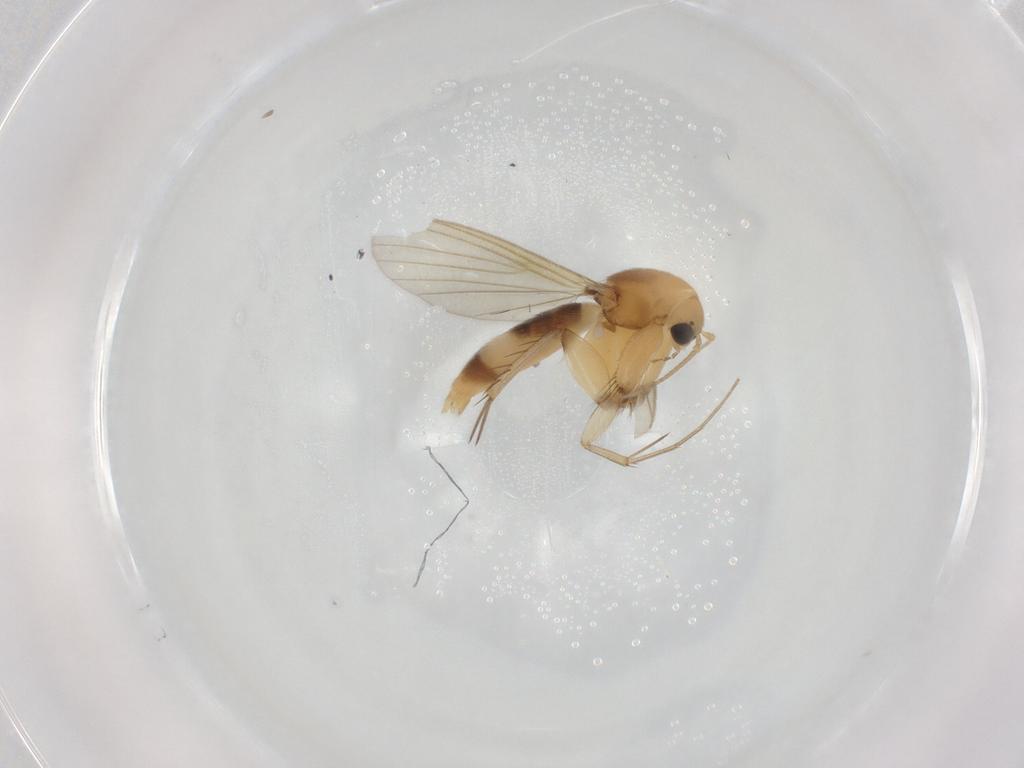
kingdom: Animalia
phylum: Arthropoda
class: Insecta
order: Diptera
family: Mycetophilidae
